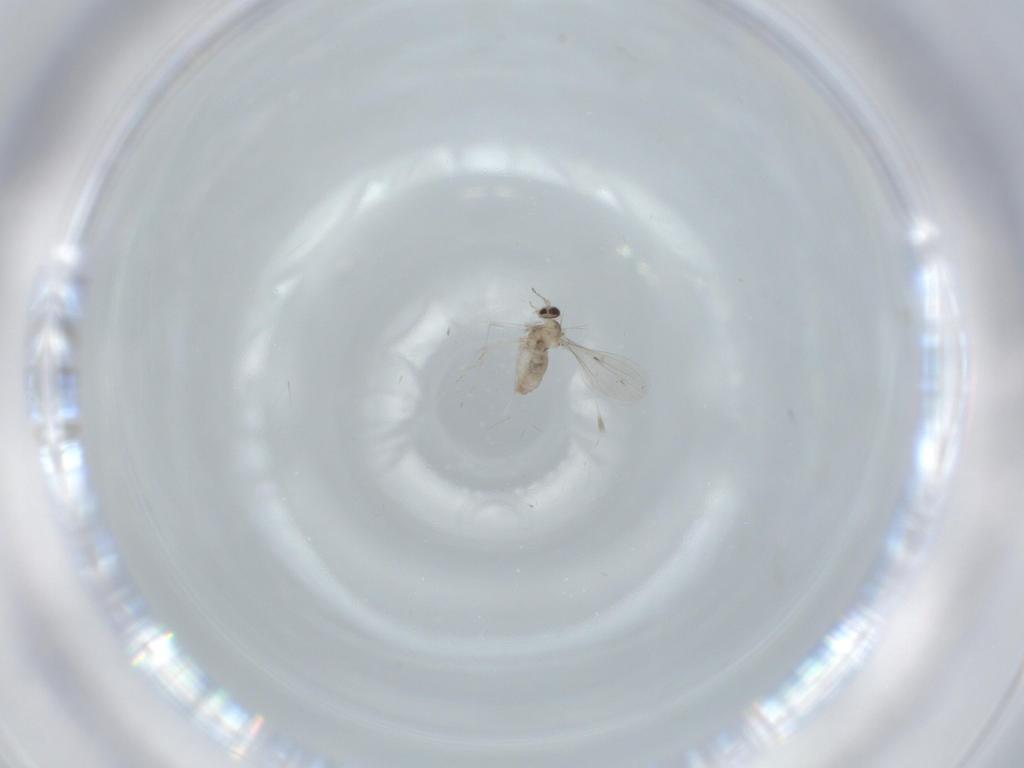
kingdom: Animalia
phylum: Arthropoda
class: Insecta
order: Diptera
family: Cecidomyiidae
